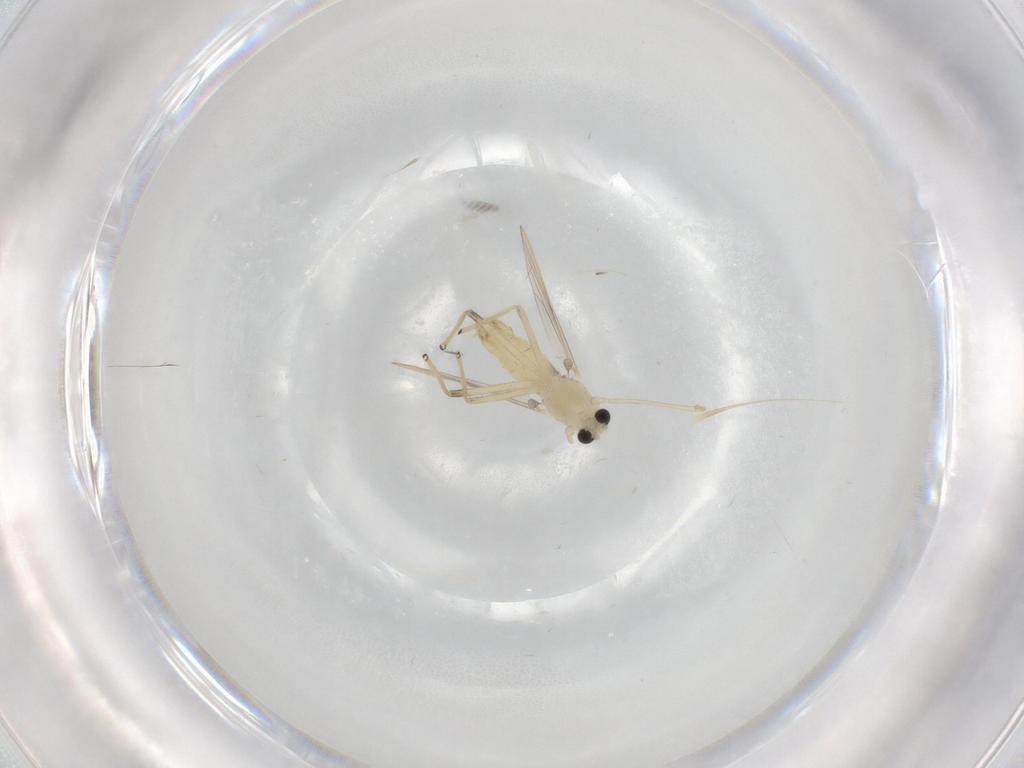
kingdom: Animalia
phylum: Arthropoda
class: Insecta
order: Diptera
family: Chironomidae
